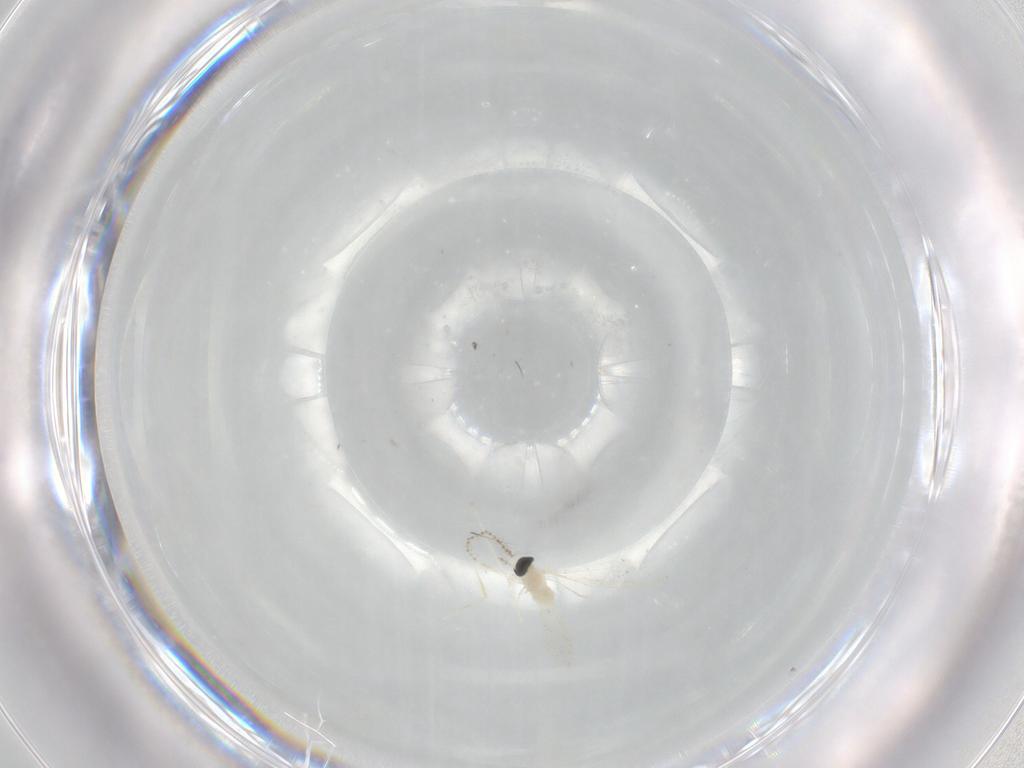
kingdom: Animalia
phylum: Arthropoda
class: Insecta
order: Diptera
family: Cecidomyiidae
